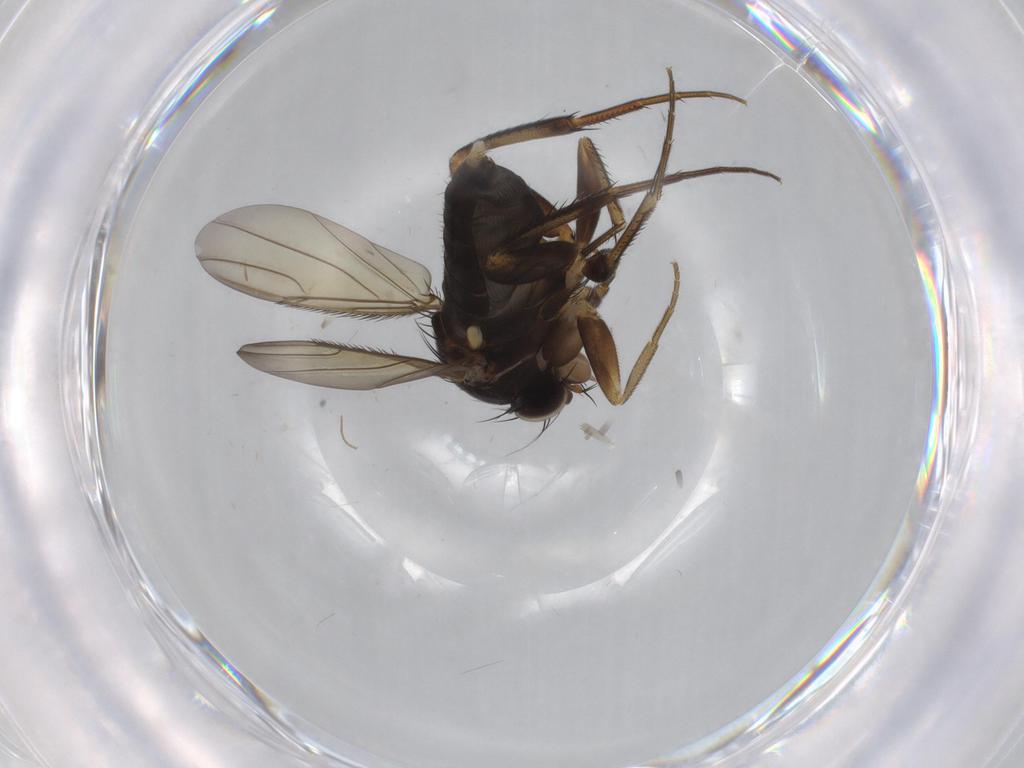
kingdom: Animalia
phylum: Arthropoda
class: Insecta
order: Diptera
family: Phoridae
